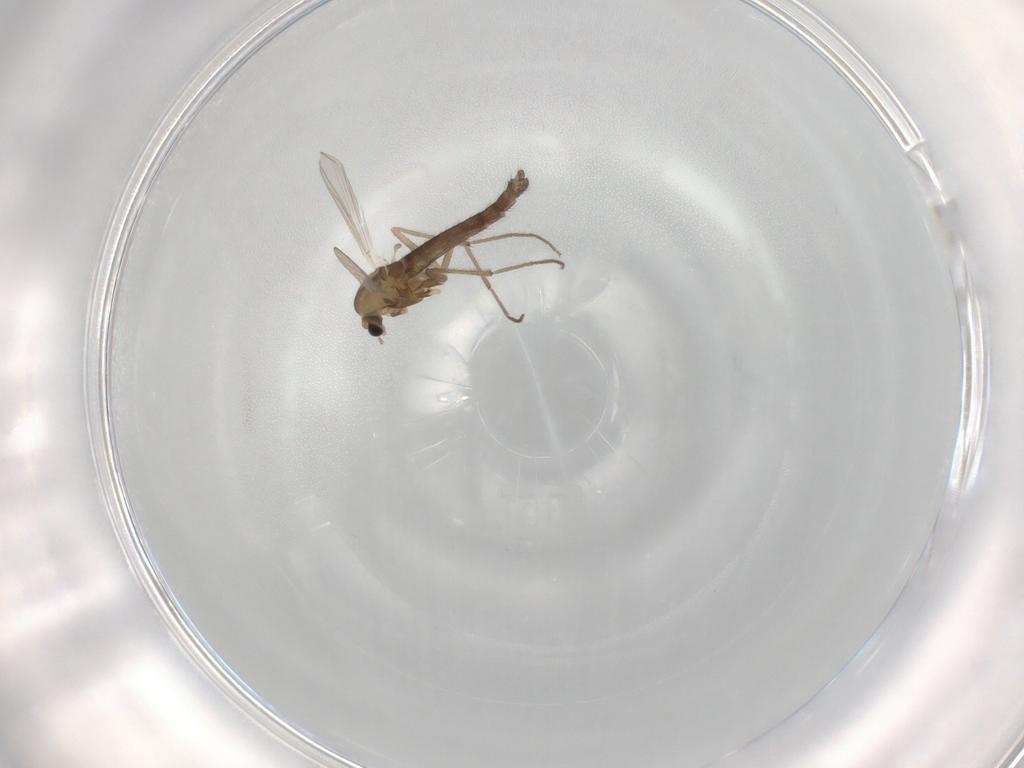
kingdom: Animalia
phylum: Arthropoda
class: Insecta
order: Diptera
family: Chironomidae
